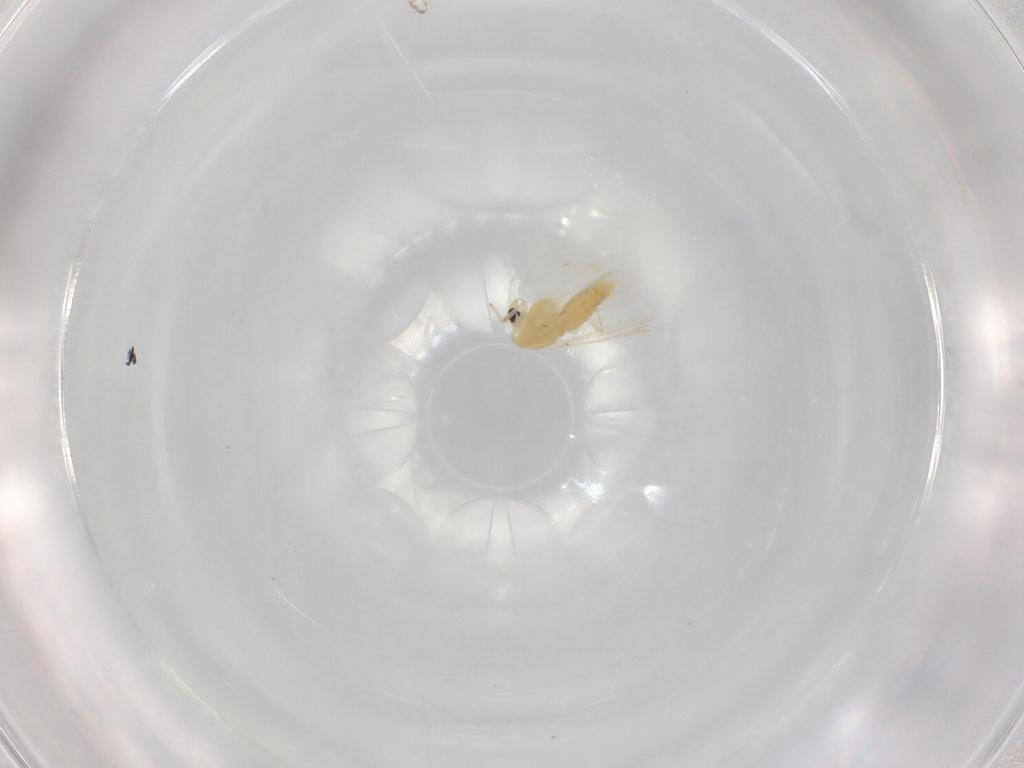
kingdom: Animalia
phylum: Arthropoda
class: Insecta
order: Diptera
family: Chironomidae
